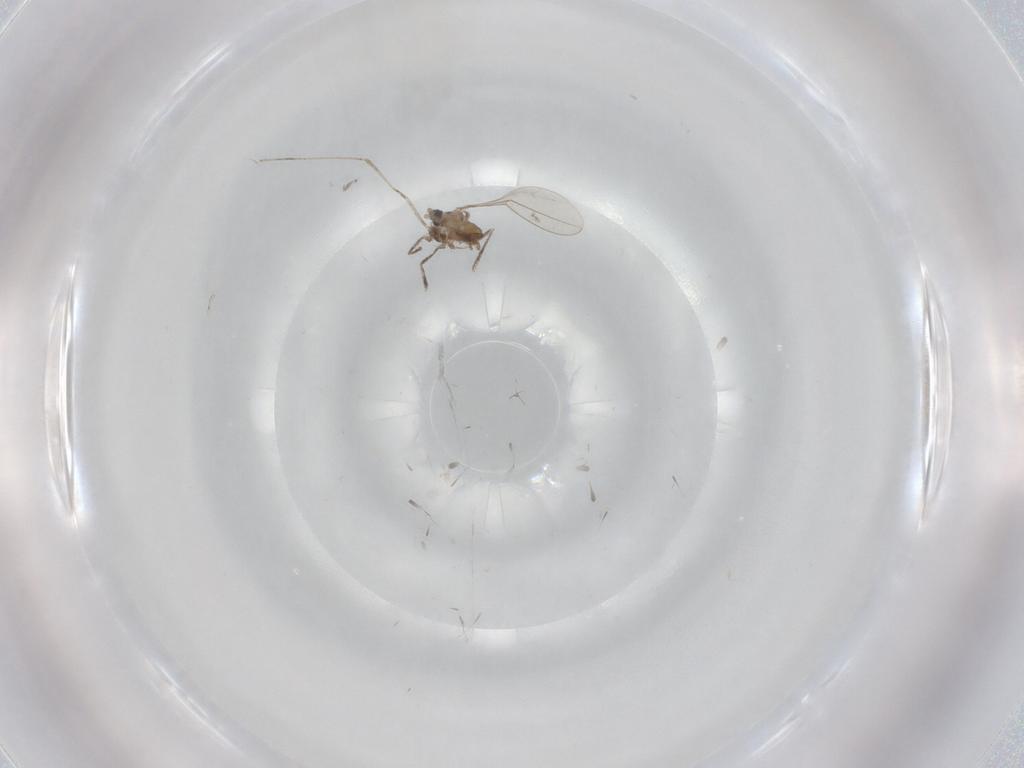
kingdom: Animalia
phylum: Arthropoda
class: Insecta
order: Diptera
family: Cecidomyiidae
